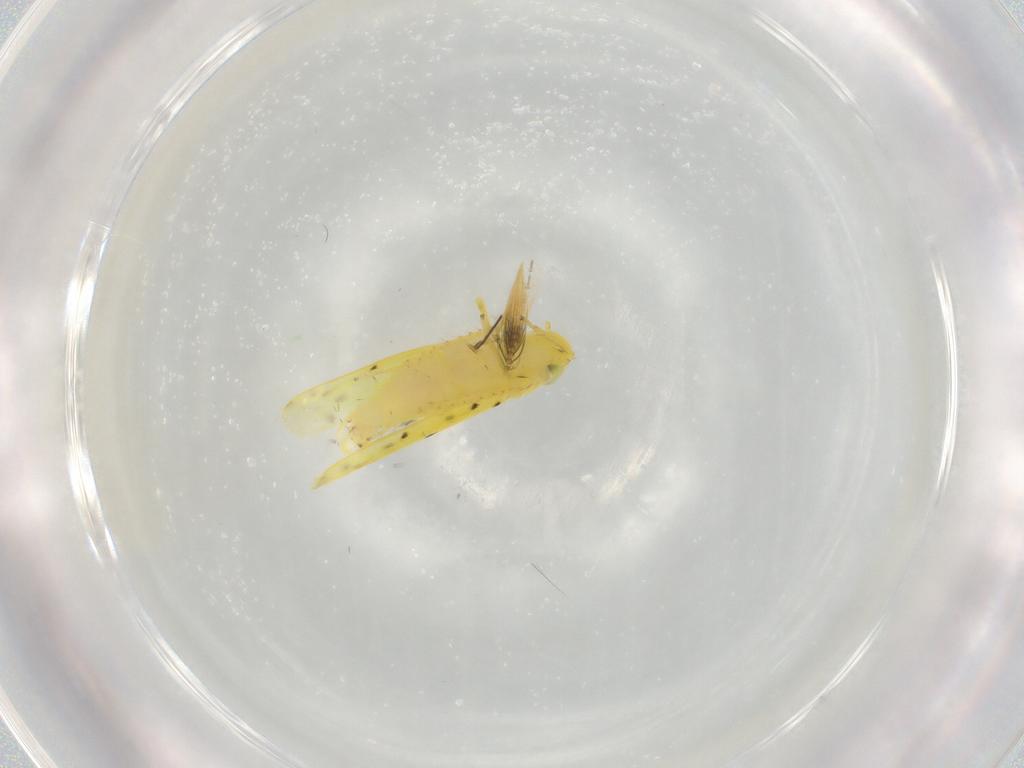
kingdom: Animalia
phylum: Arthropoda
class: Insecta
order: Hemiptera
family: Cicadellidae
